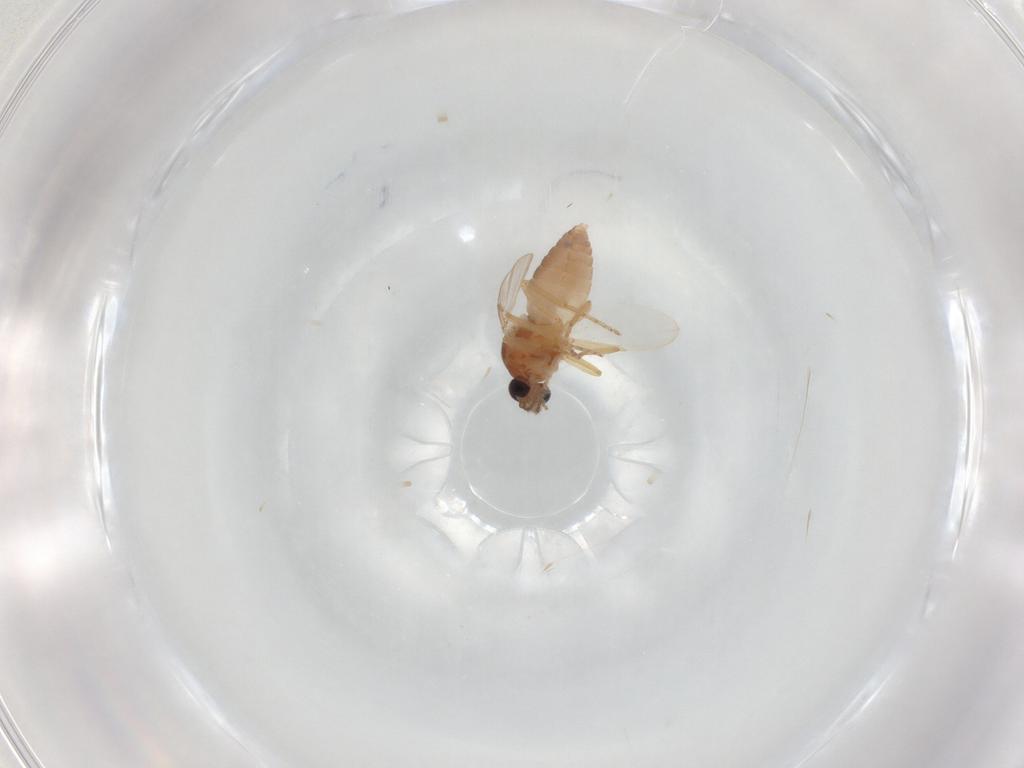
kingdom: Animalia
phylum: Arthropoda
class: Insecta
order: Diptera
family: Ceratopogonidae
